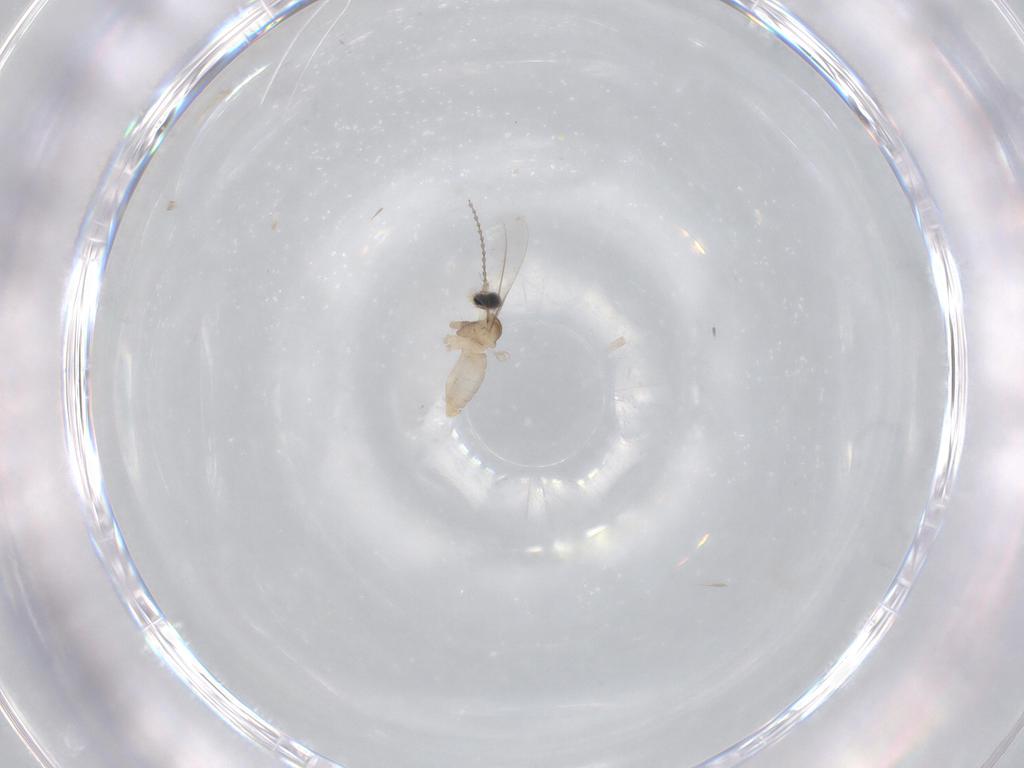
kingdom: Animalia
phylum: Arthropoda
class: Insecta
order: Diptera
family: Cecidomyiidae
